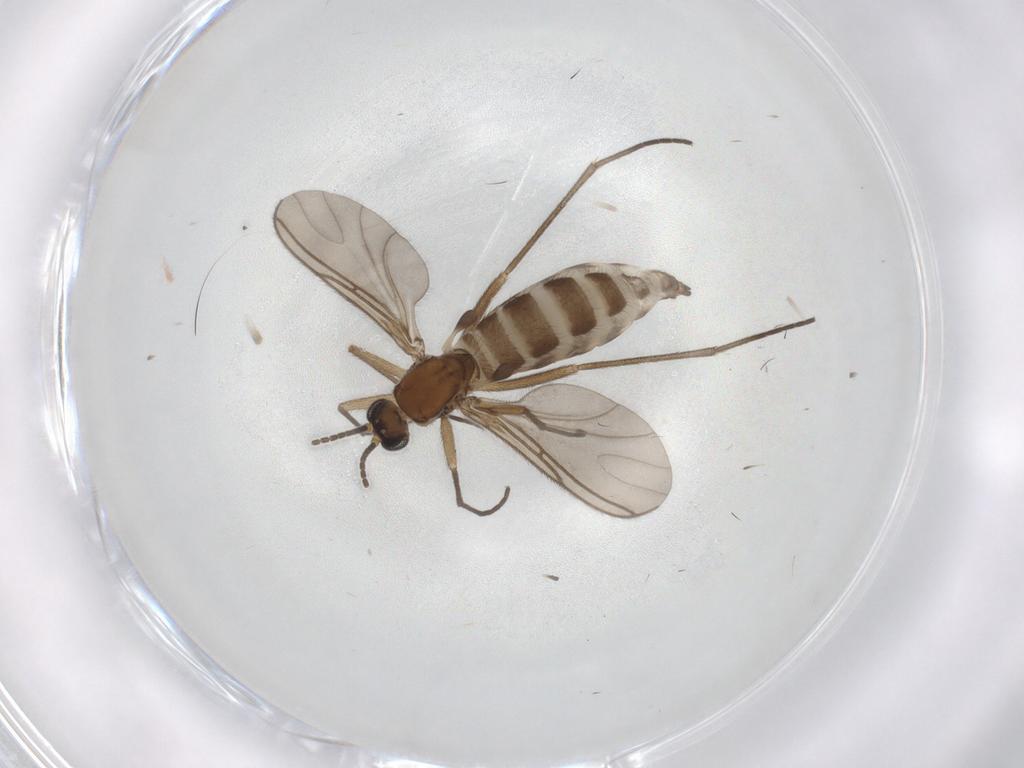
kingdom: Animalia
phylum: Arthropoda
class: Insecta
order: Diptera
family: Sciaridae
